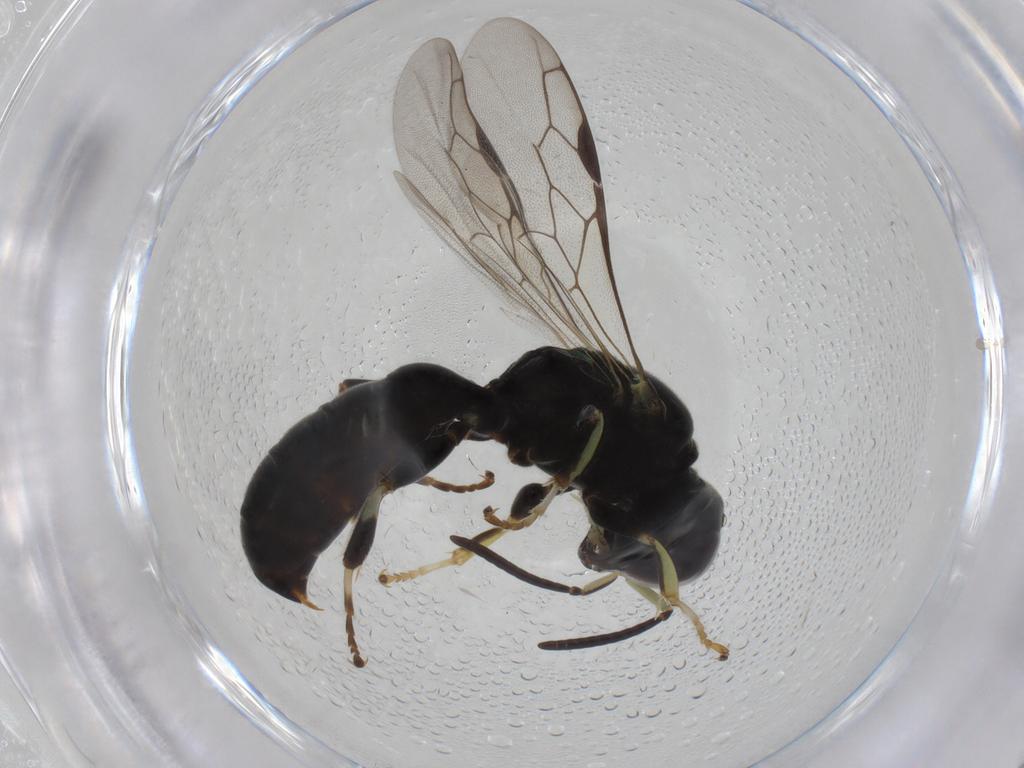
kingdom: Animalia
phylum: Arthropoda
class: Insecta
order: Hymenoptera
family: Crabronidae
